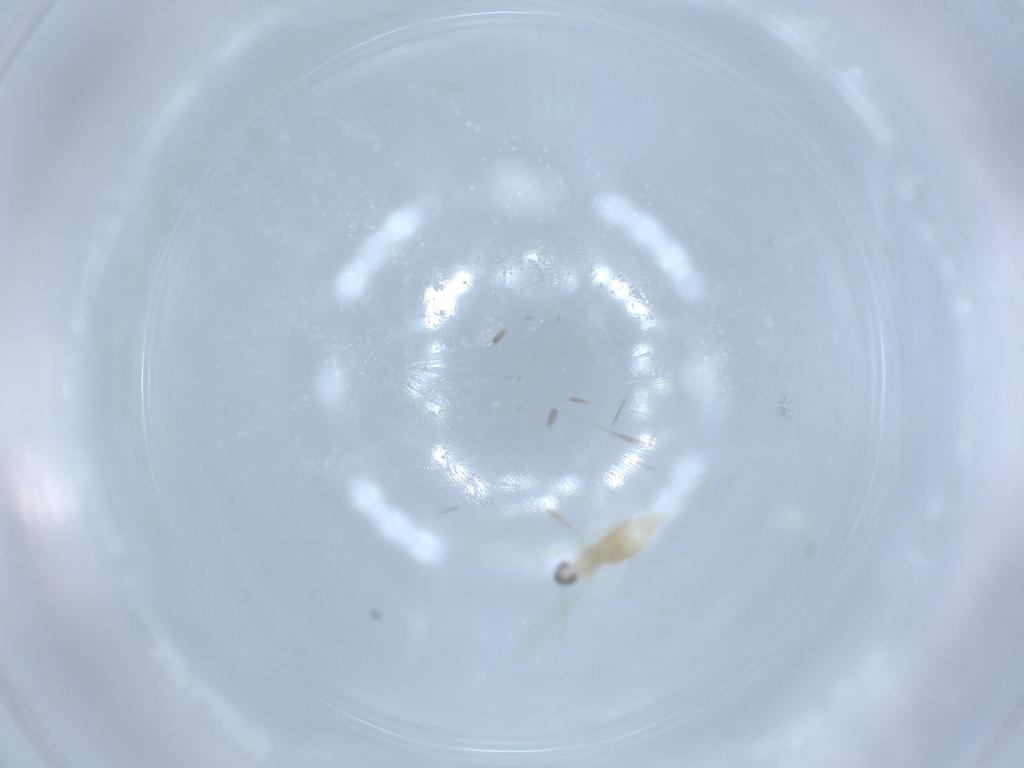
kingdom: Animalia
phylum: Arthropoda
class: Insecta
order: Diptera
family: Cecidomyiidae
